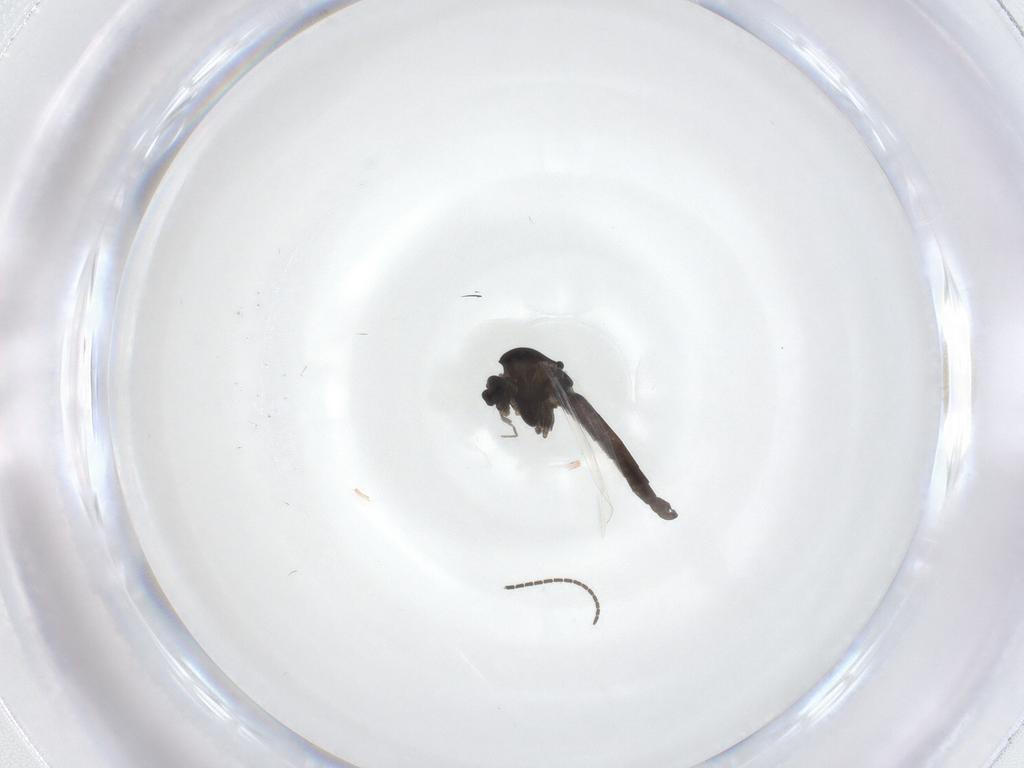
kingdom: Animalia
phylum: Arthropoda
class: Insecta
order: Diptera
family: Sciaridae
